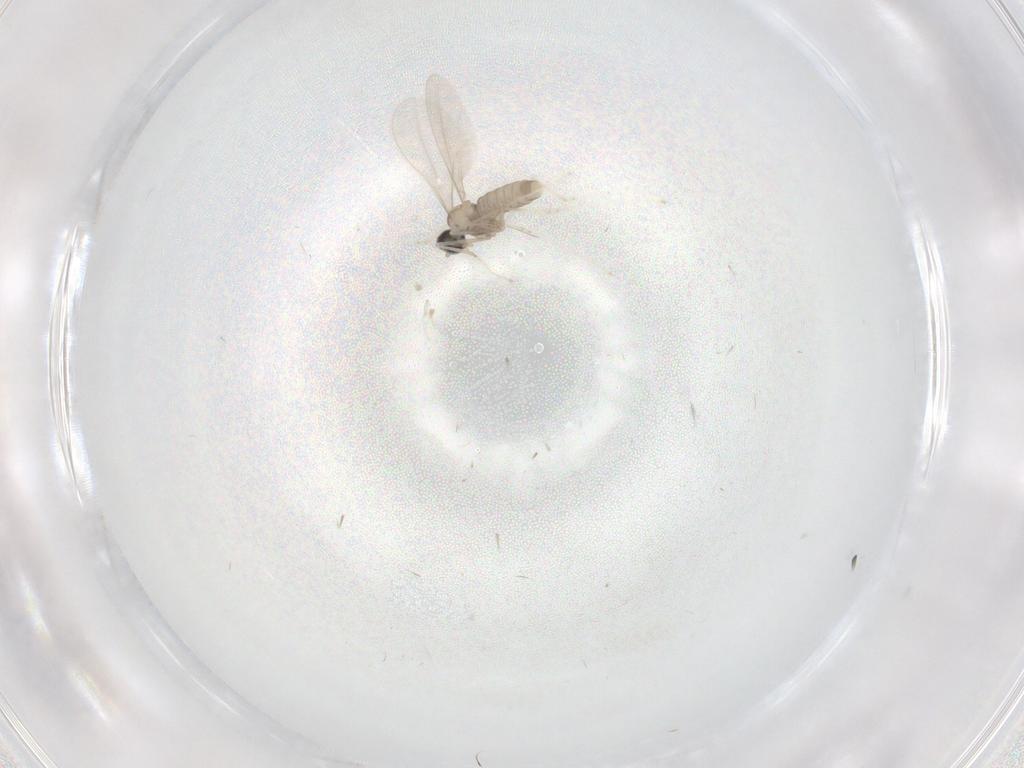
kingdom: Animalia
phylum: Arthropoda
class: Insecta
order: Diptera
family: Cecidomyiidae
